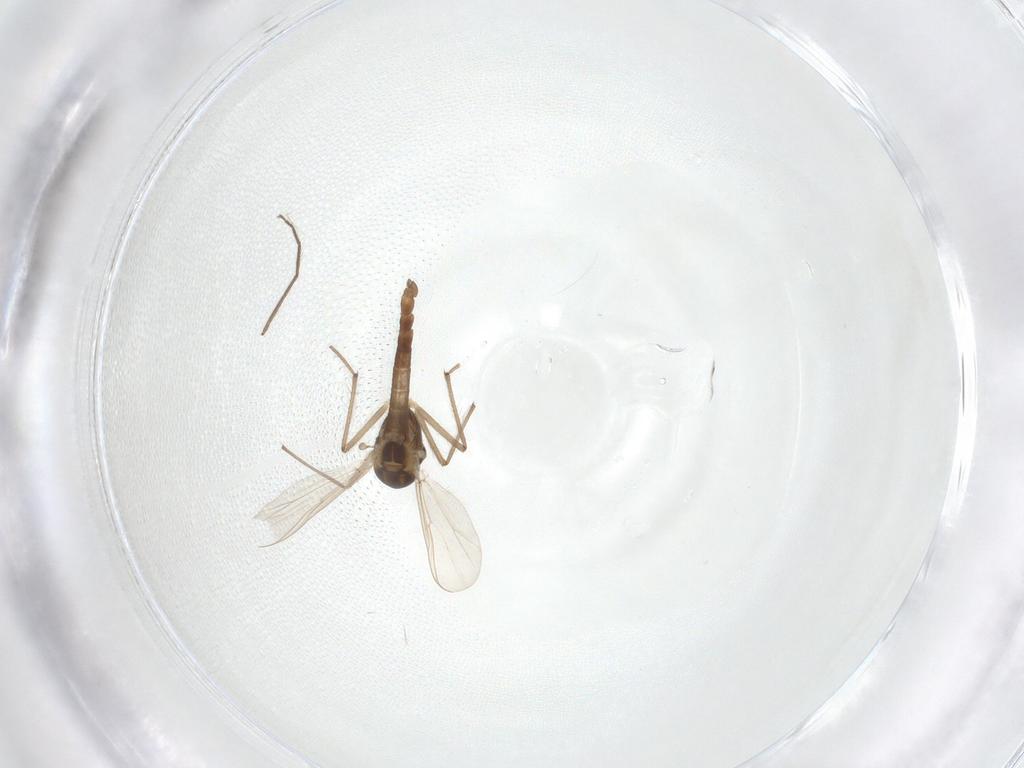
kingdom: Animalia
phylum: Arthropoda
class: Insecta
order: Diptera
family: Chironomidae
